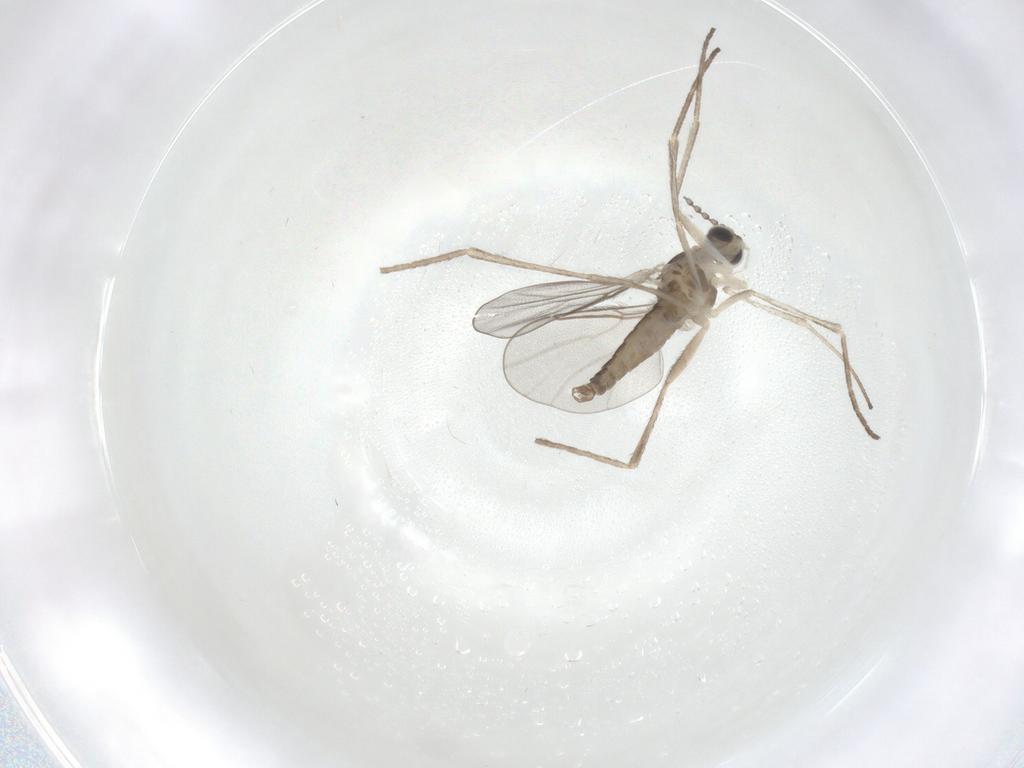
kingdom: Animalia
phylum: Arthropoda
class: Insecta
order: Diptera
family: Cecidomyiidae
